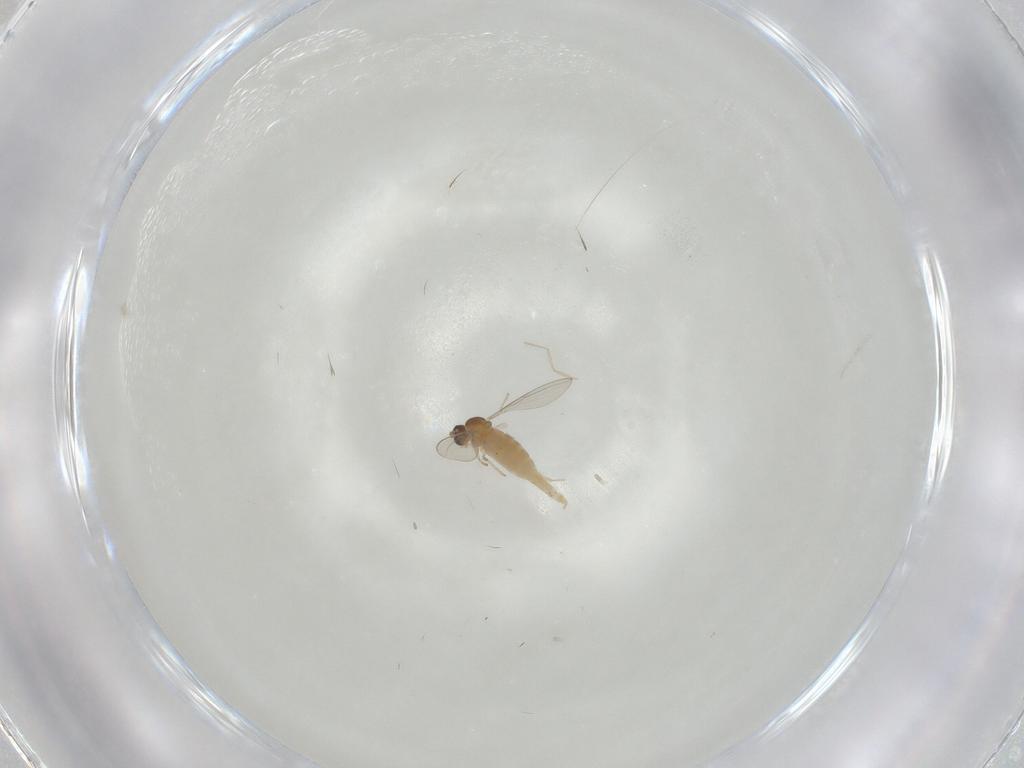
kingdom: Animalia
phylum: Arthropoda
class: Insecta
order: Diptera
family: Cecidomyiidae
